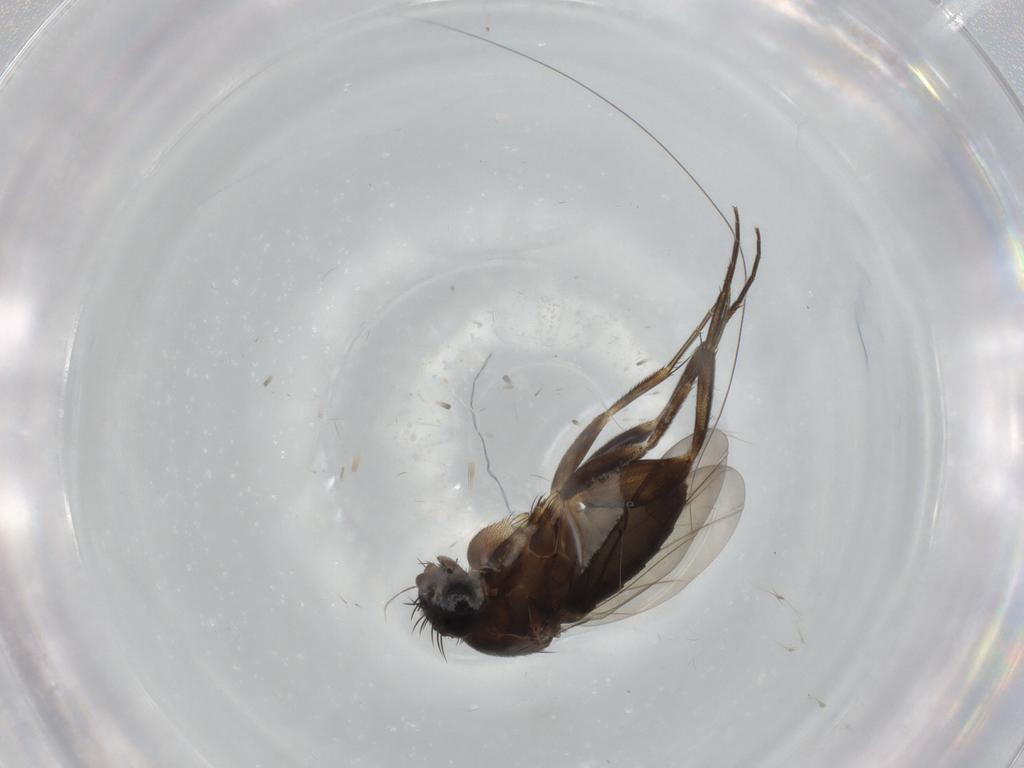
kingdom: Animalia
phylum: Arthropoda
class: Insecta
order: Diptera
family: Phoridae
